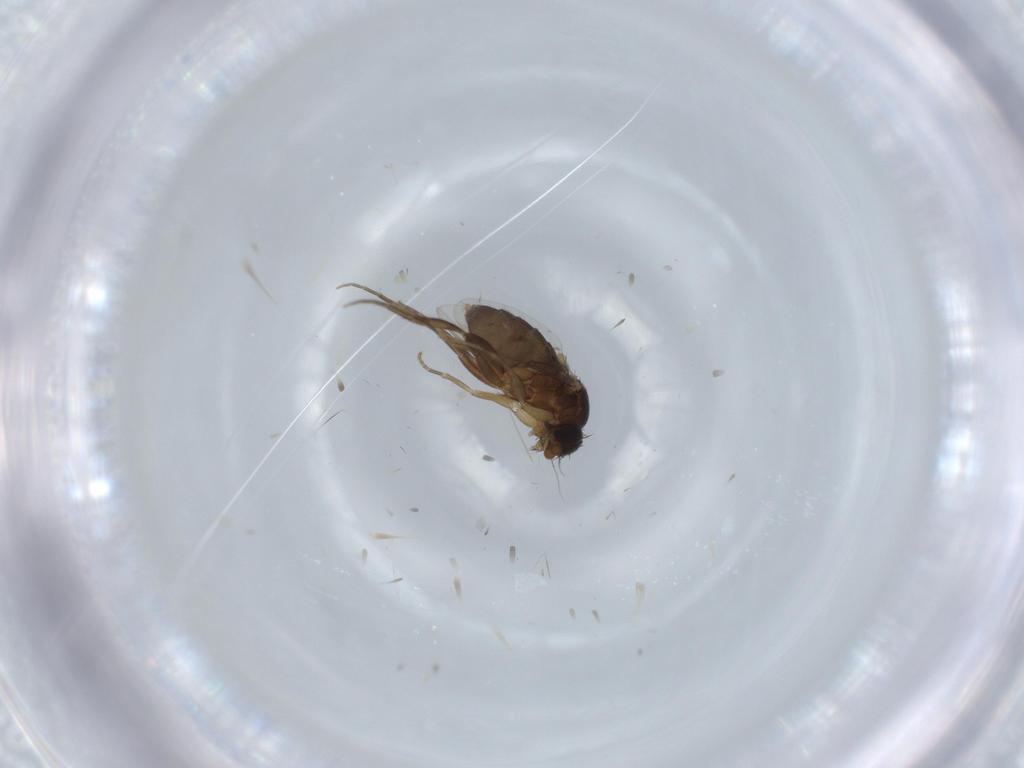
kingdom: Animalia
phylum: Arthropoda
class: Insecta
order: Diptera
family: Phoridae
